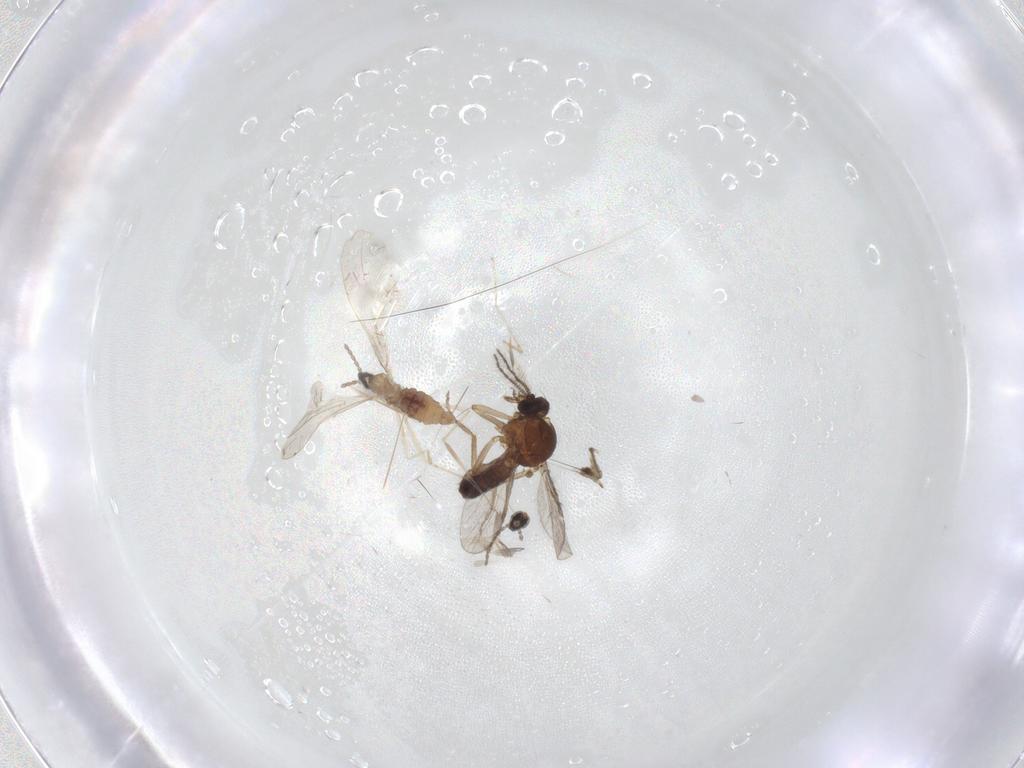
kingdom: Animalia
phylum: Arthropoda
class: Insecta
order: Diptera
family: Ceratopogonidae
